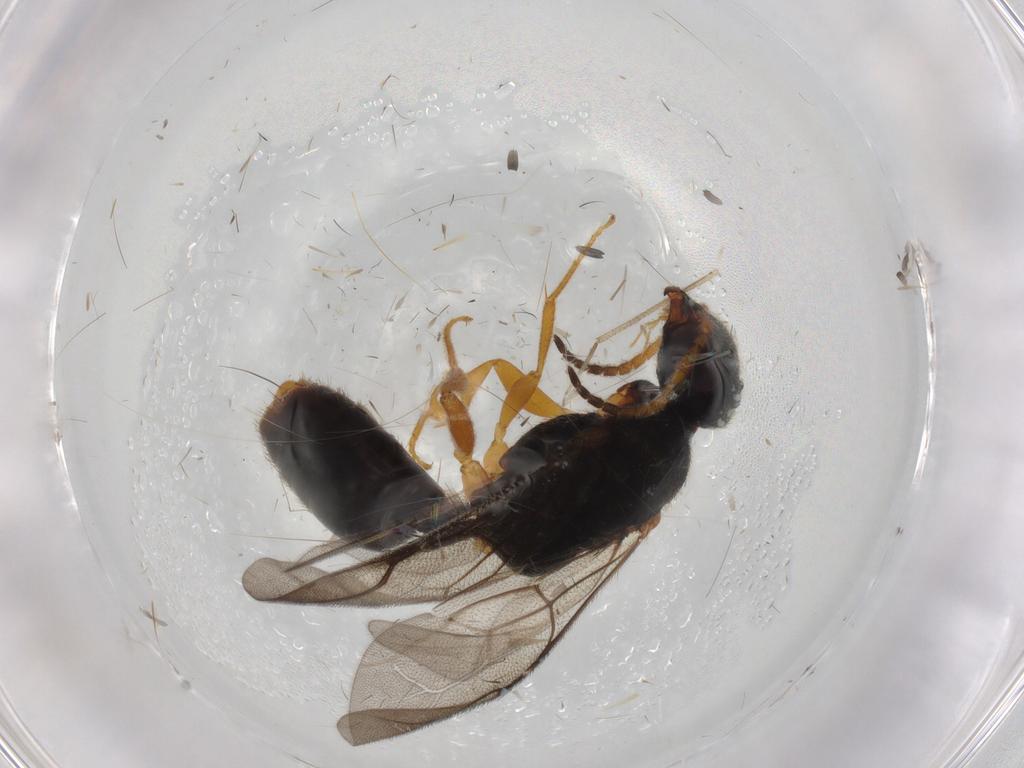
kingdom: Animalia
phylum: Arthropoda
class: Insecta
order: Hymenoptera
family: Bethylidae
